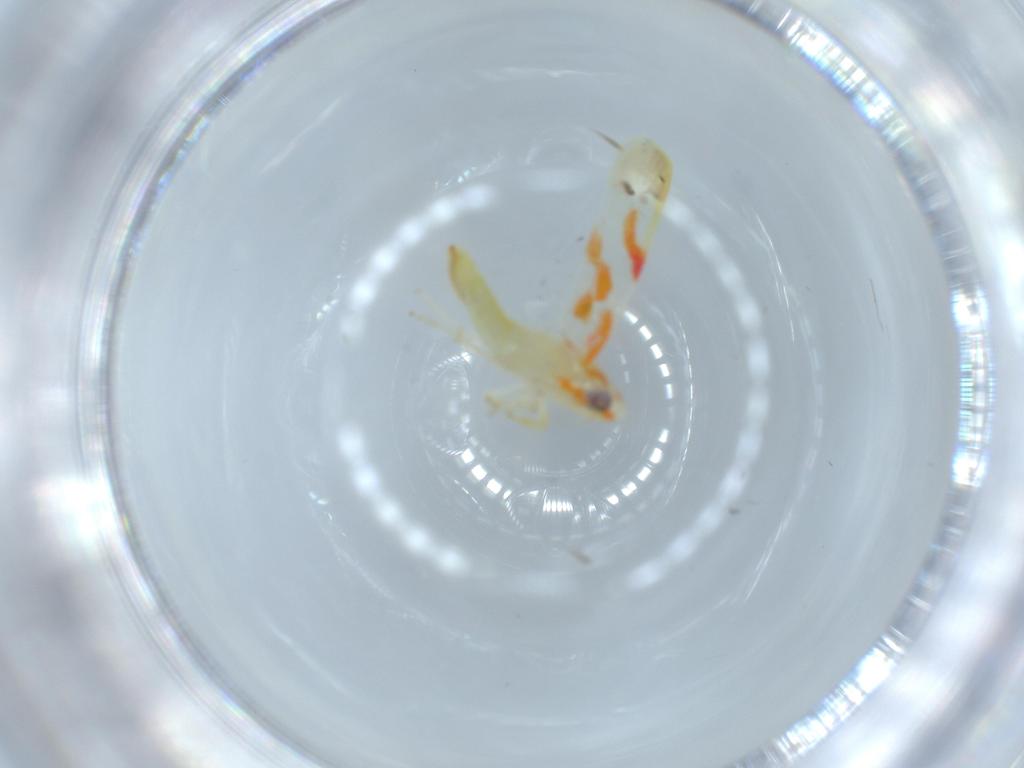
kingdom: Animalia
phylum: Arthropoda
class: Insecta
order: Hemiptera
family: Cicadellidae
